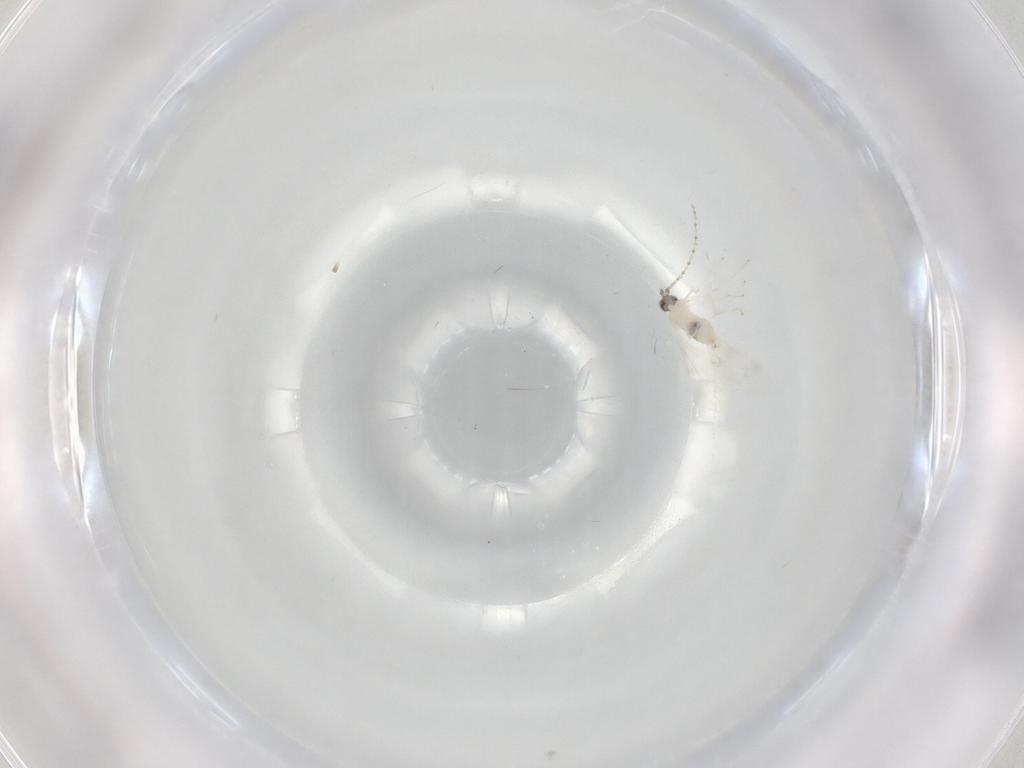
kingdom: Animalia
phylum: Arthropoda
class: Insecta
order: Diptera
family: Cecidomyiidae
